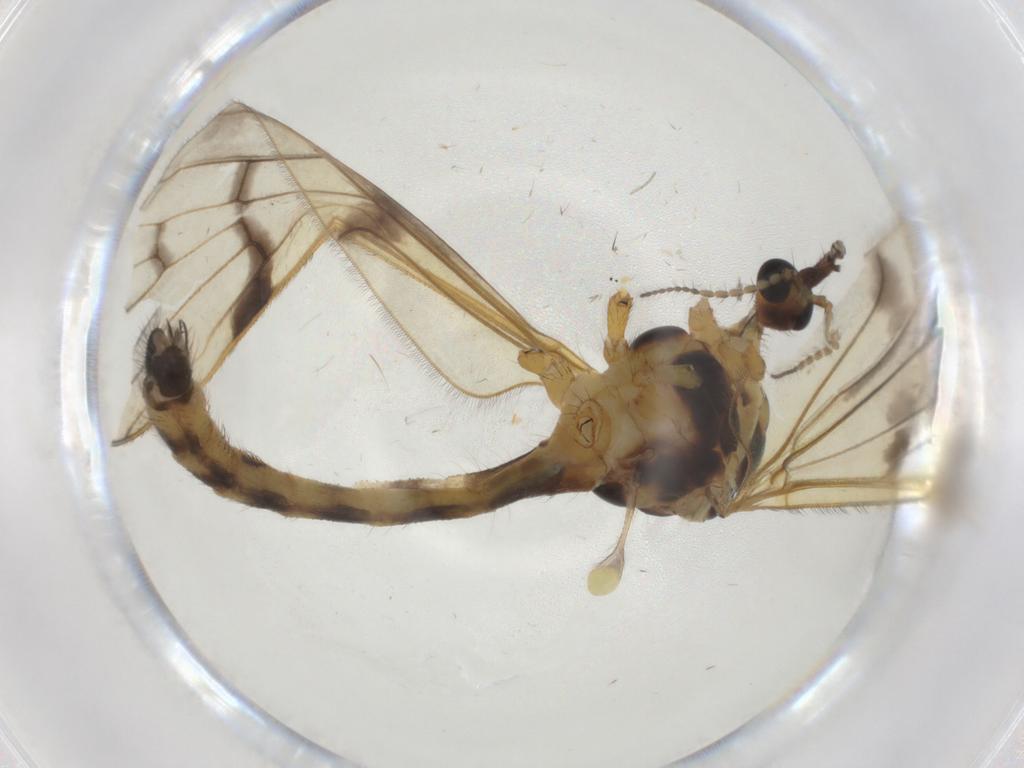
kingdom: Animalia
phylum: Arthropoda
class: Insecta
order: Diptera
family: Limoniidae
